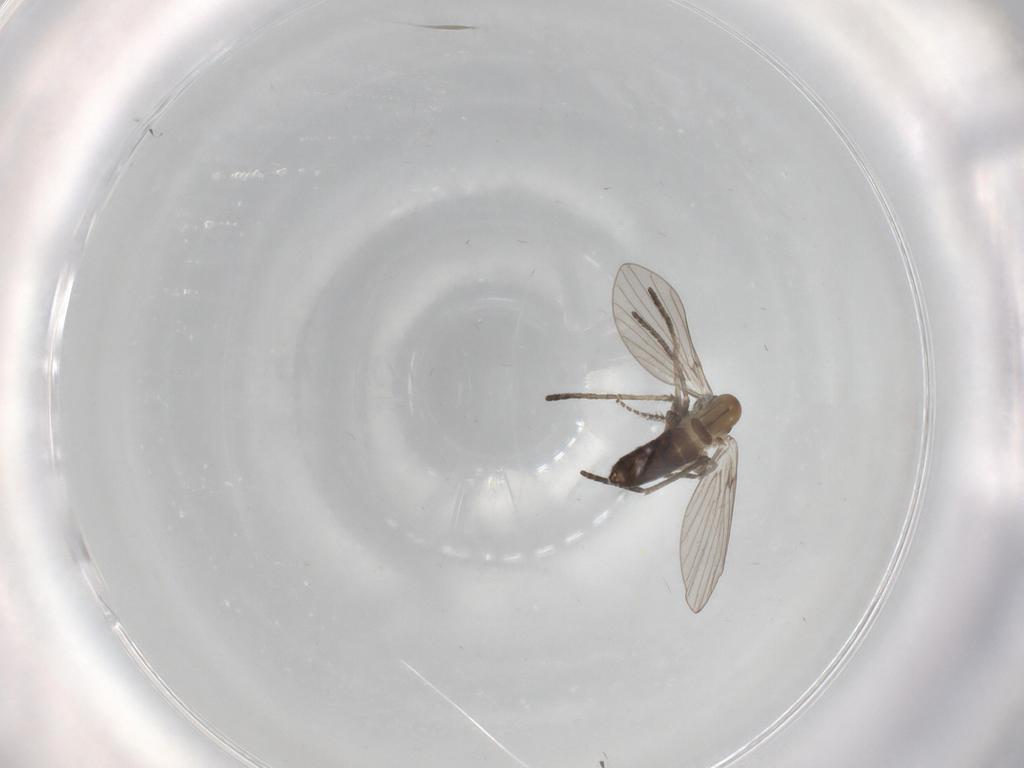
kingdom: Animalia
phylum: Arthropoda
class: Insecta
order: Diptera
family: Psychodidae
